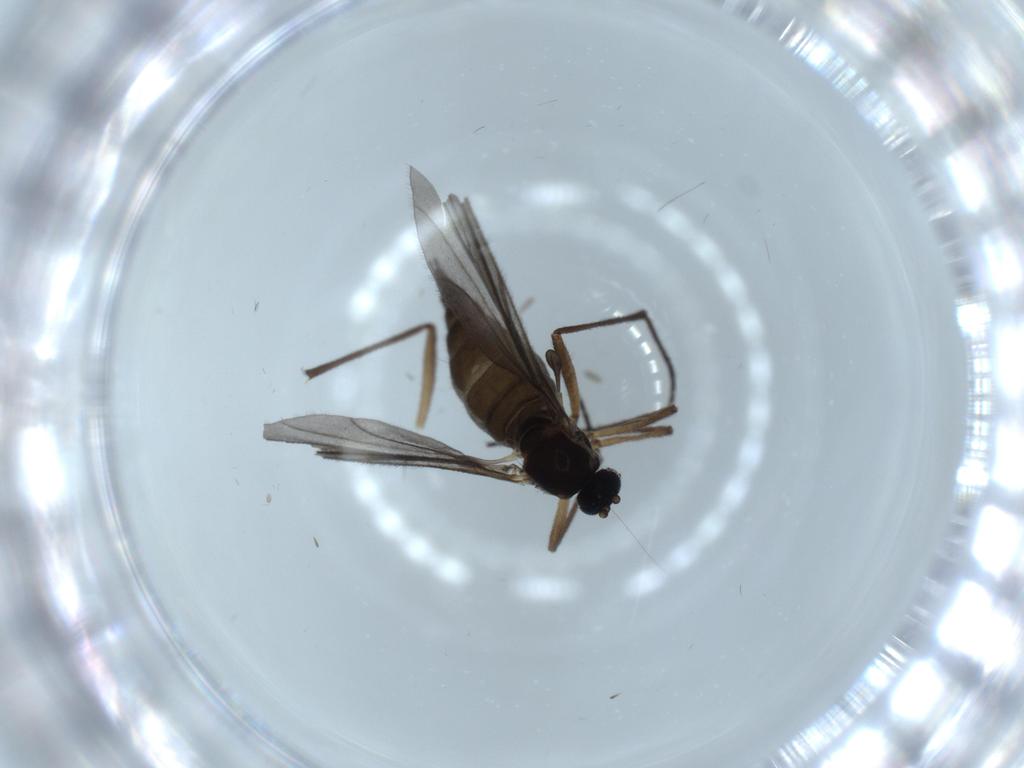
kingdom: Animalia
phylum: Arthropoda
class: Insecta
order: Diptera
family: Sciaridae
